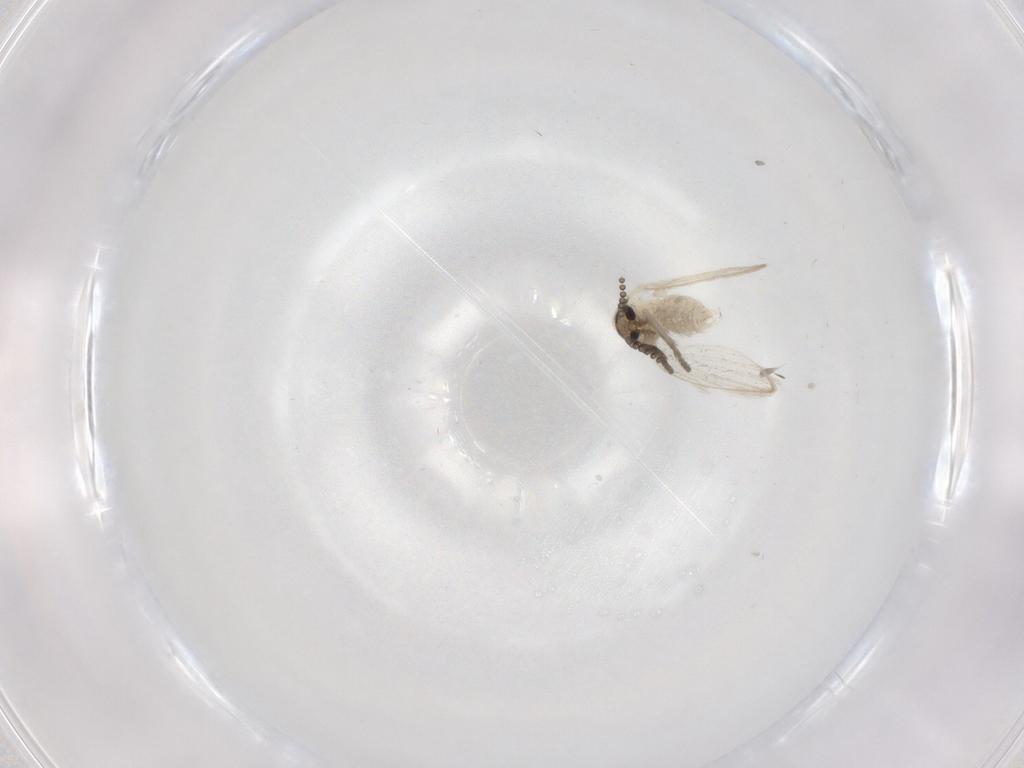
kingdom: Animalia
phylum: Arthropoda
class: Insecta
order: Diptera
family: Psychodidae
